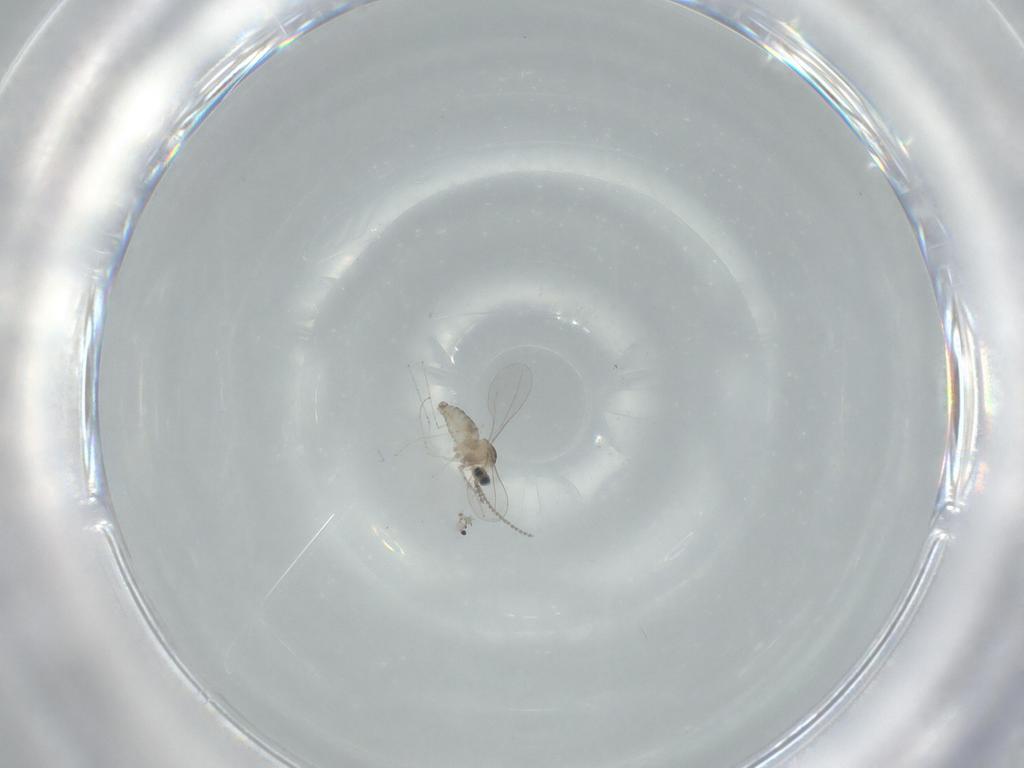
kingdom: Animalia
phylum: Arthropoda
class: Insecta
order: Diptera
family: Cecidomyiidae
